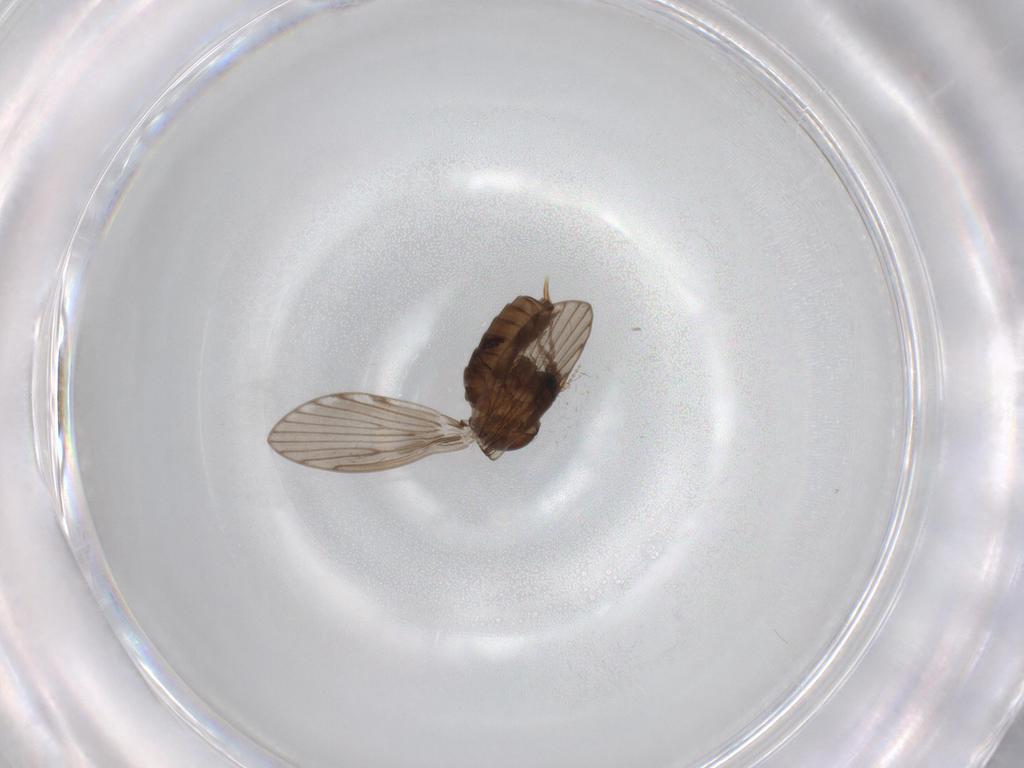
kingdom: Animalia
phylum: Arthropoda
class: Insecta
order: Diptera
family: Psychodidae
